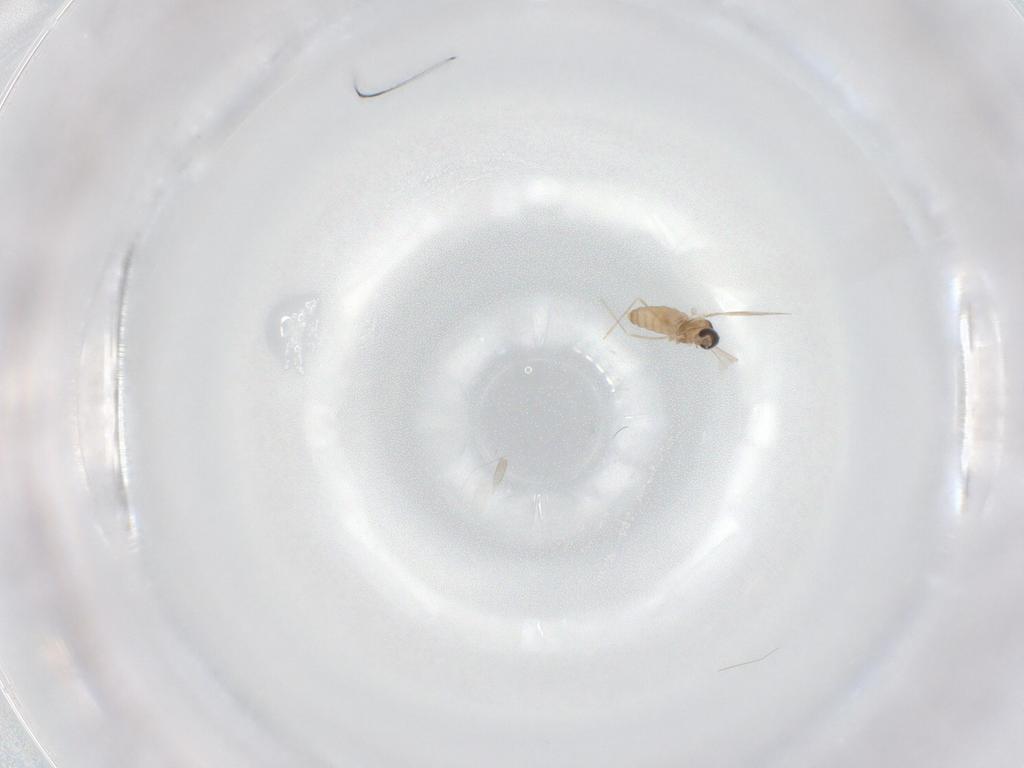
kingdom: Animalia
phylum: Arthropoda
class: Insecta
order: Diptera
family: Cecidomyiidae
